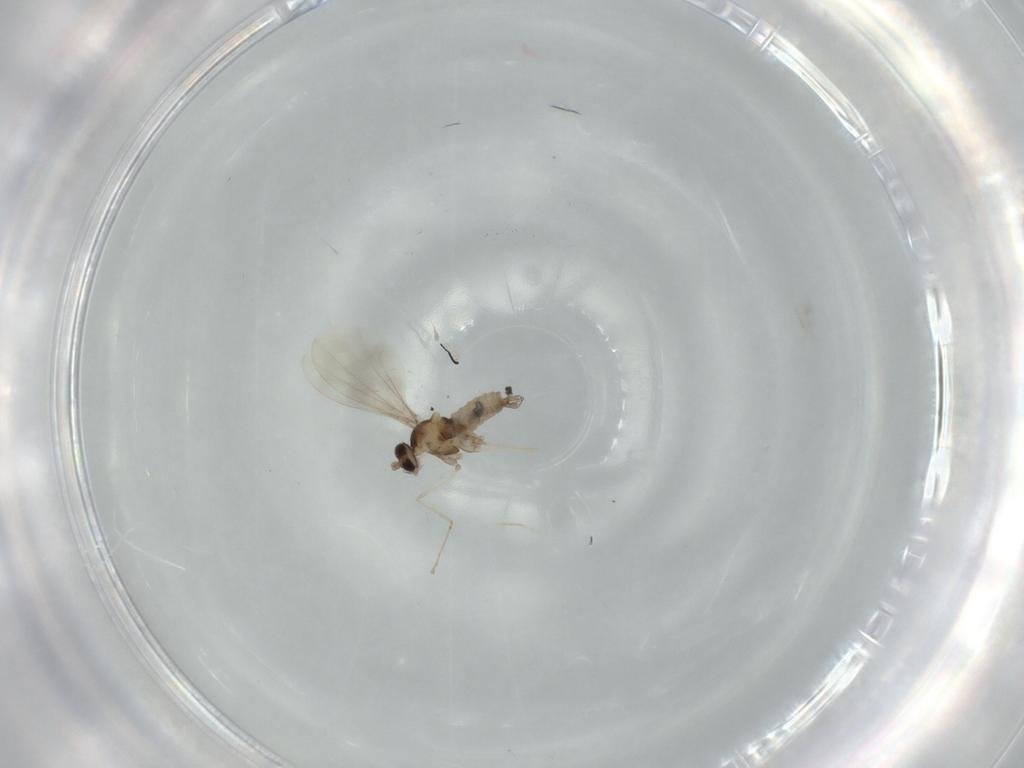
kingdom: Animalia
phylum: Arthropoda
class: Insecta
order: Diptera
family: Cecidomyiidae
